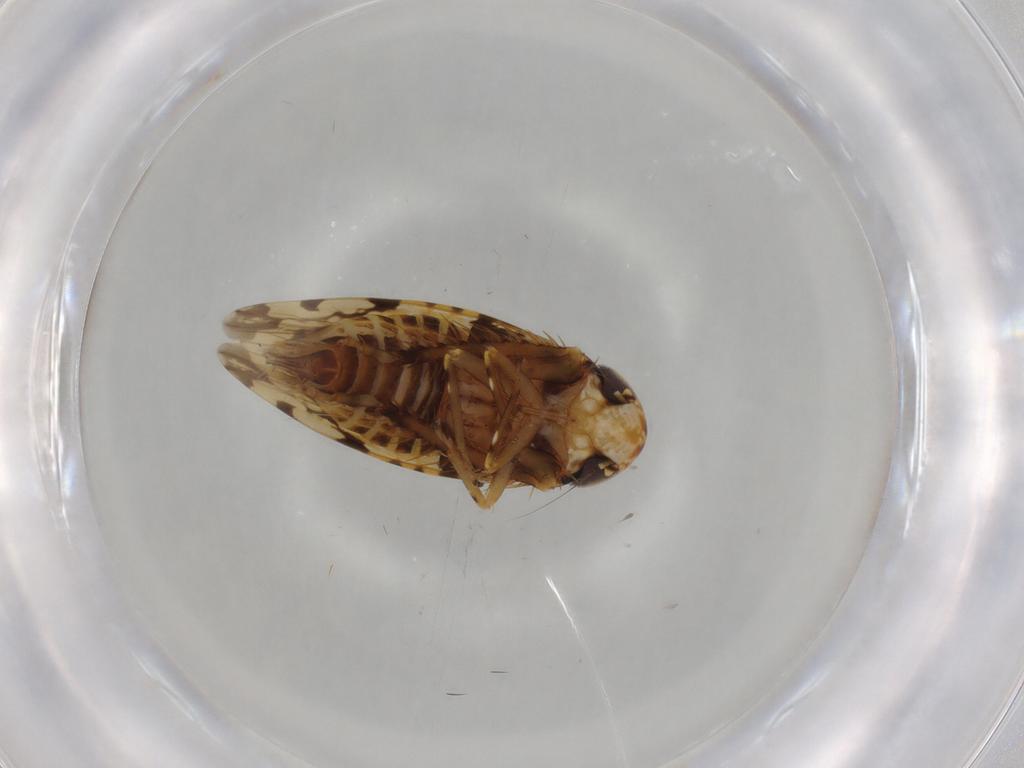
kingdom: Animalia
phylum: Arthropoda
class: Insecta
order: Hemiptera
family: Cicadellidae
